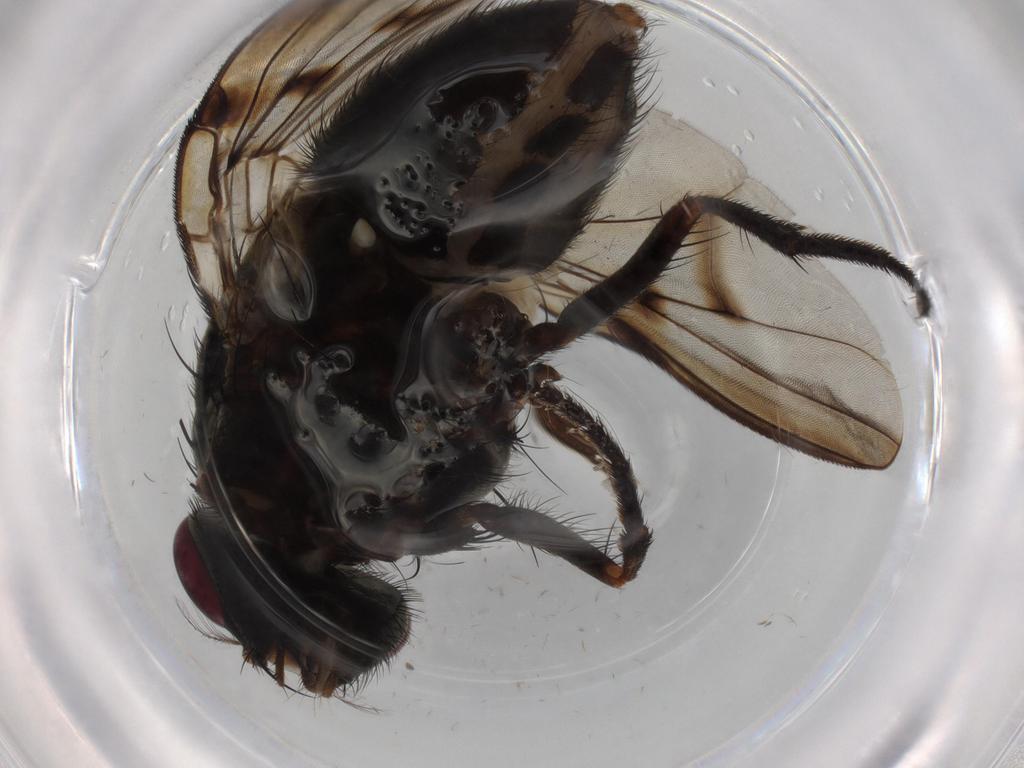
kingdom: Animalia
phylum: Arthropoda
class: Insecta
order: Diptera
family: Muscidae
